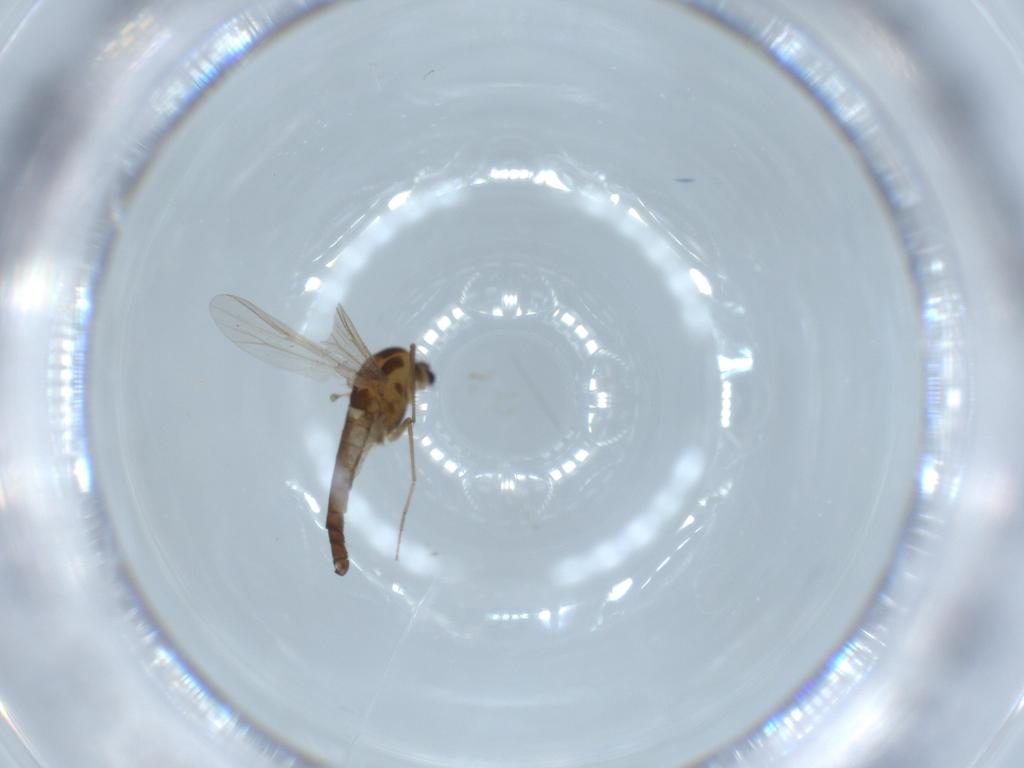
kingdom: Animalia
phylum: Arthropoda
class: Insecta
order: Diptera
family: Chironomidae
